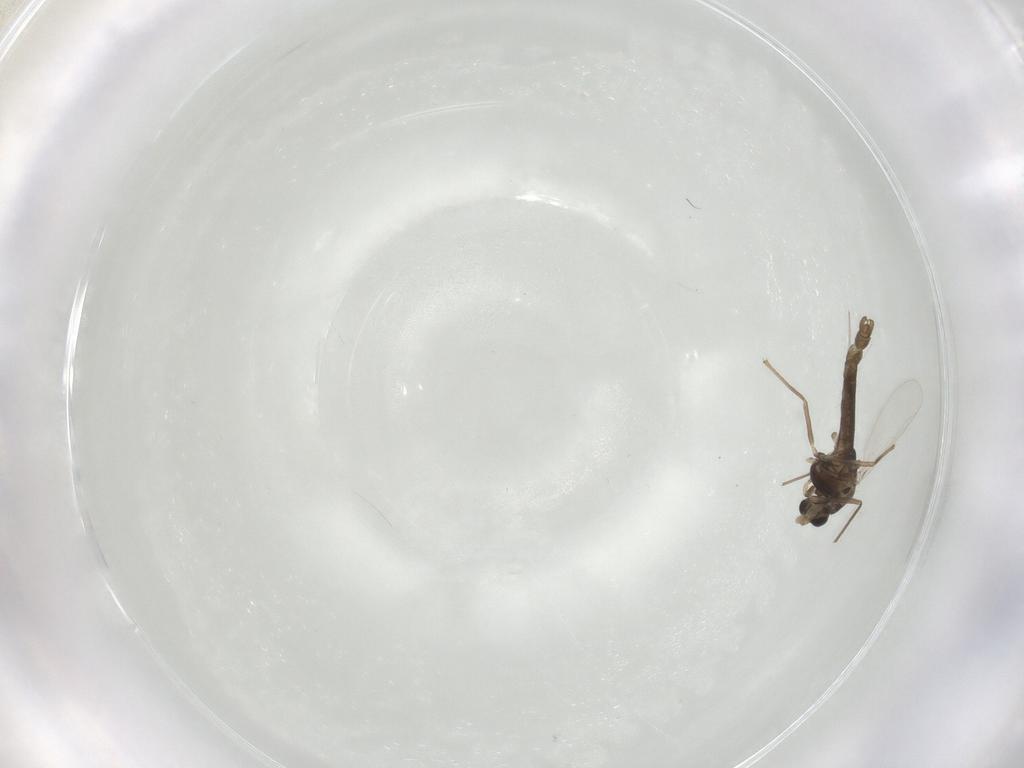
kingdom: Animalia
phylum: Arthropoda
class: Insecta
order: Diptera
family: Chironomidae
